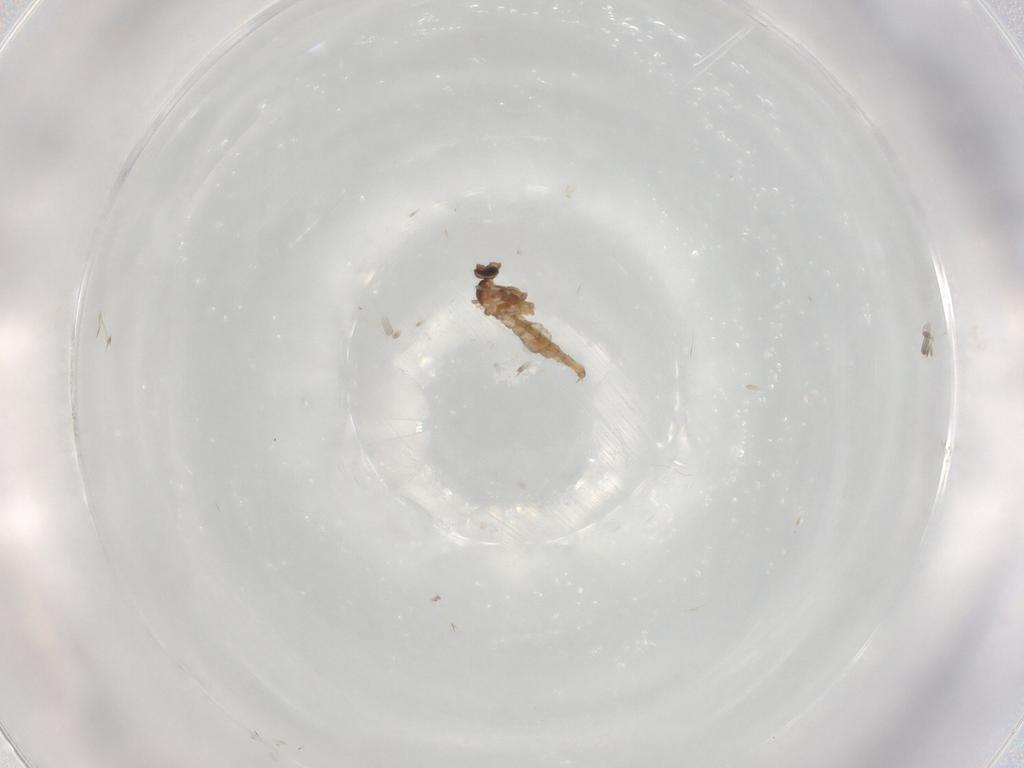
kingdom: Animalia
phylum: Arthropoda
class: Insecta
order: Diptera
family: Cecidomyiidae
